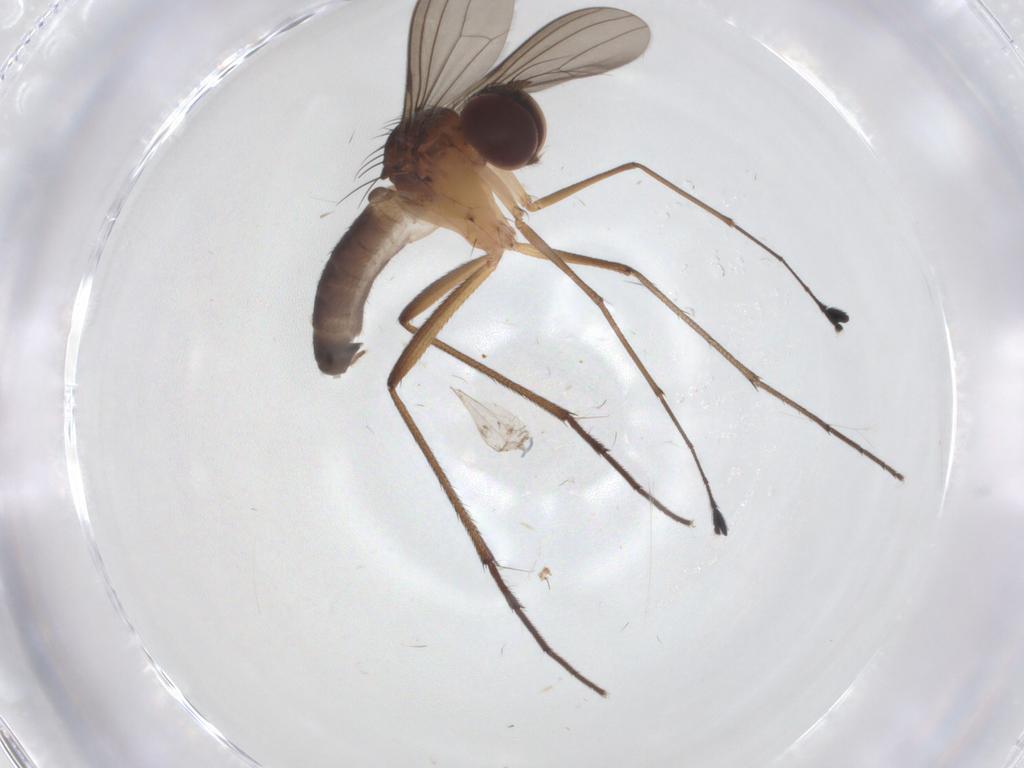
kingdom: Animalia
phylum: Arthropoda
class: Insecta
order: Diptera
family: Dolichopodidae
